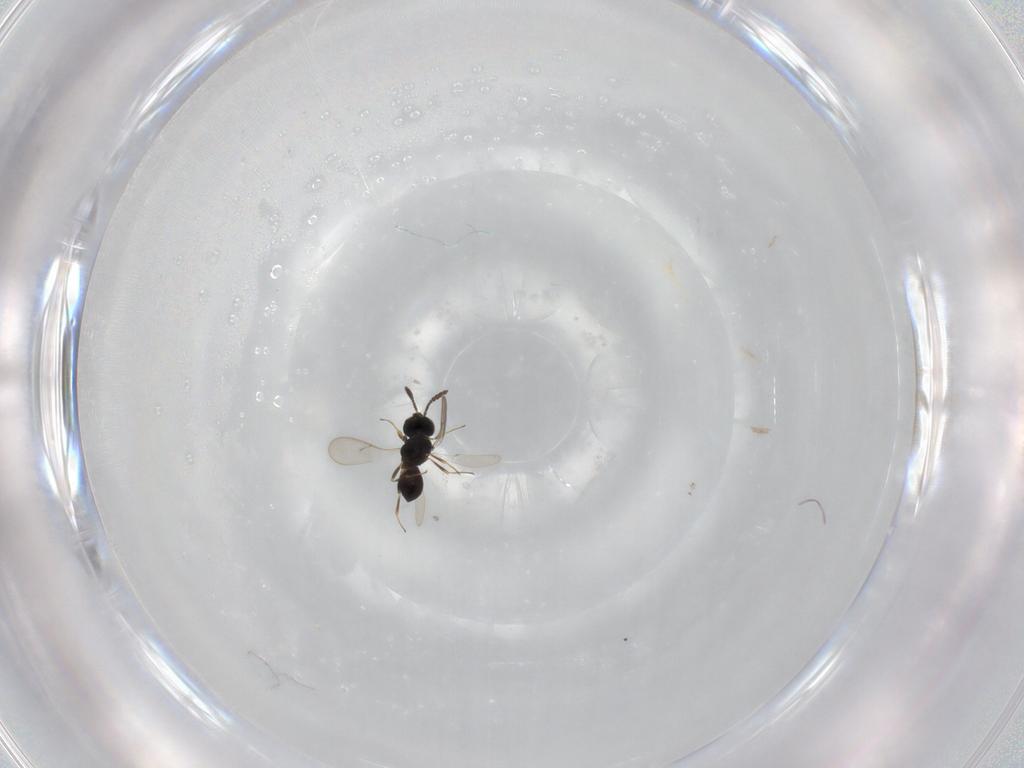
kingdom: Animalia
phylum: Arthropoda
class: Insecta
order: Hymenoptera
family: Scelionidae
